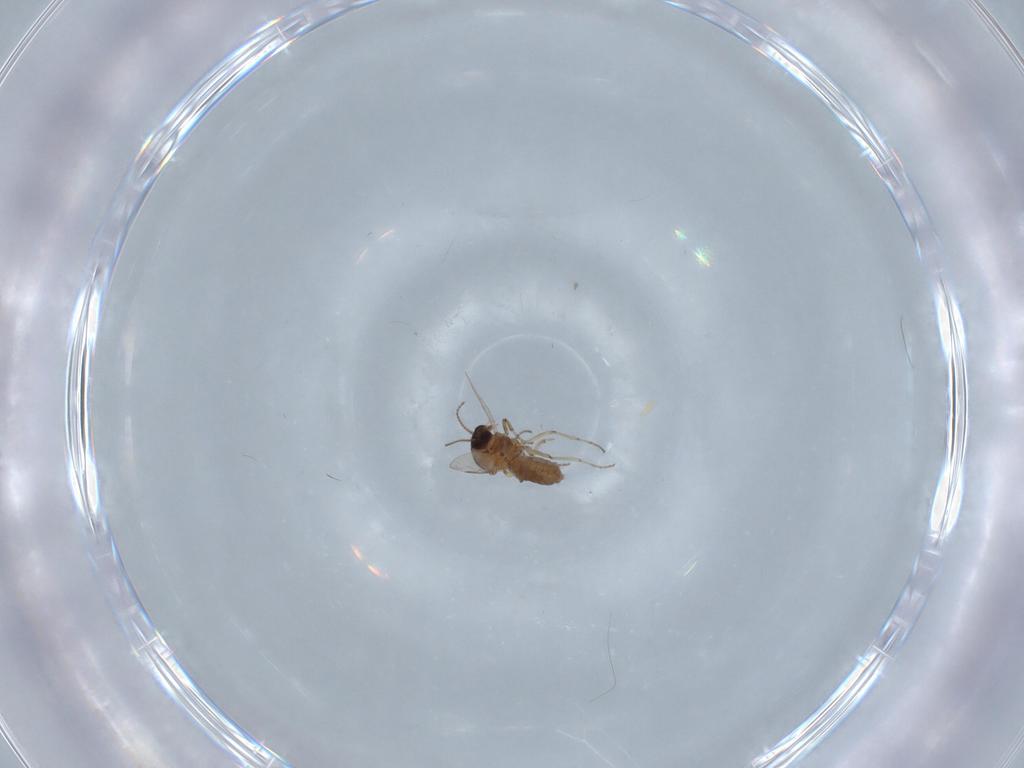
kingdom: Animalia
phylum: Arthropoda
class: Insecta
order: Diptera
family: Ceratopogonidae
